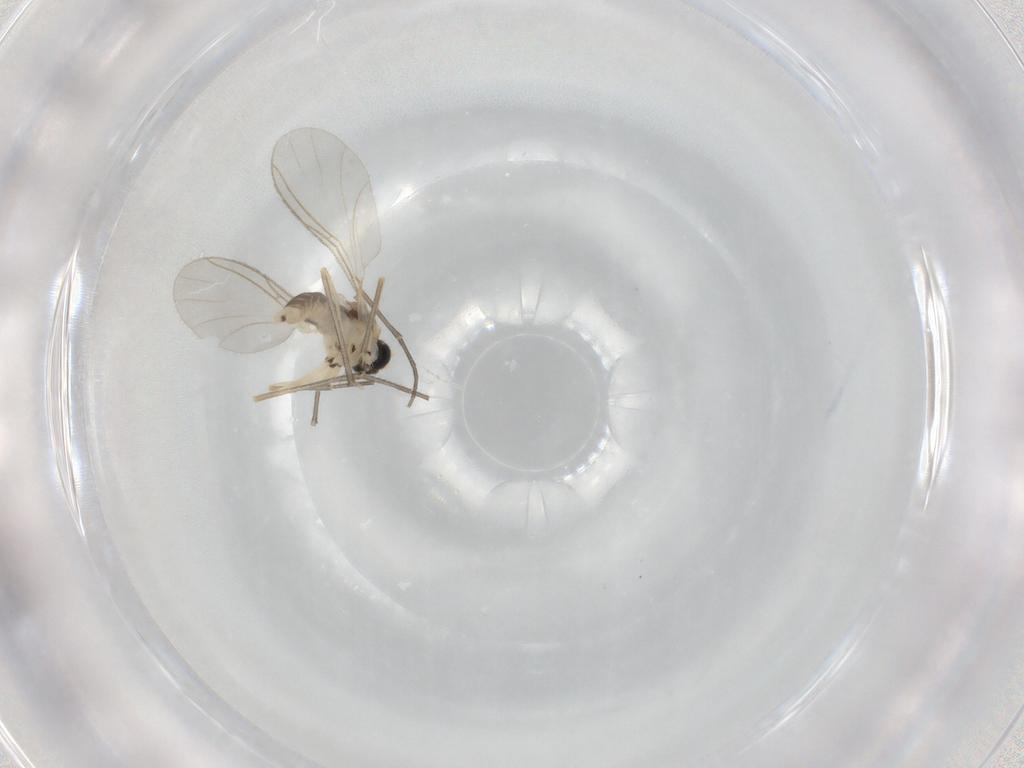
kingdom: Animalia
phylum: Arthropoda
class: Insecta
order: Diptera
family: Sciaridae
